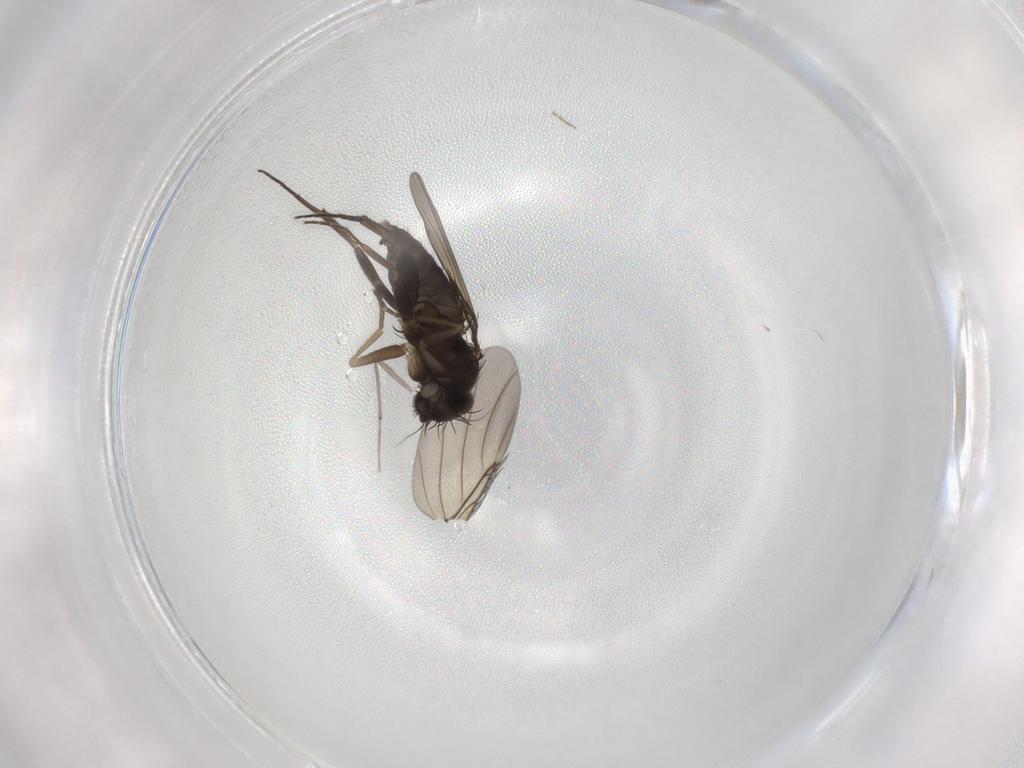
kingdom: Animalia
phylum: Arthropoda
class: Insecta
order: Diptera
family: Phoridae
